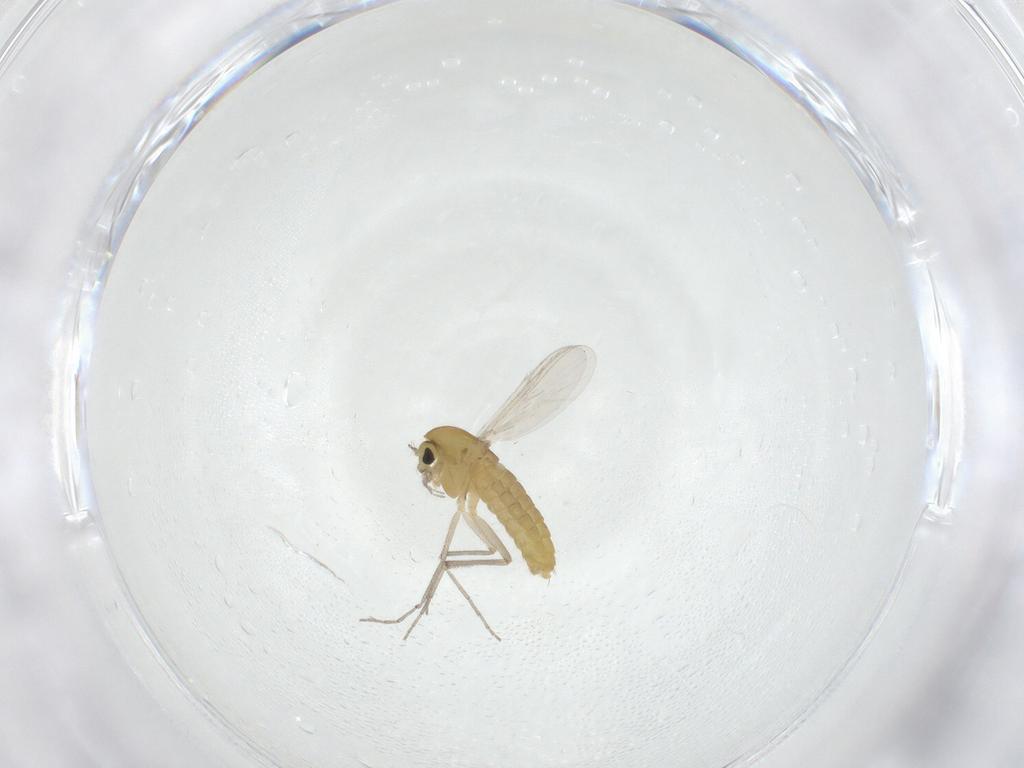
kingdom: Animalia
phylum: Arthropoda
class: Insecta
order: Diptera
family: Chironomidae
